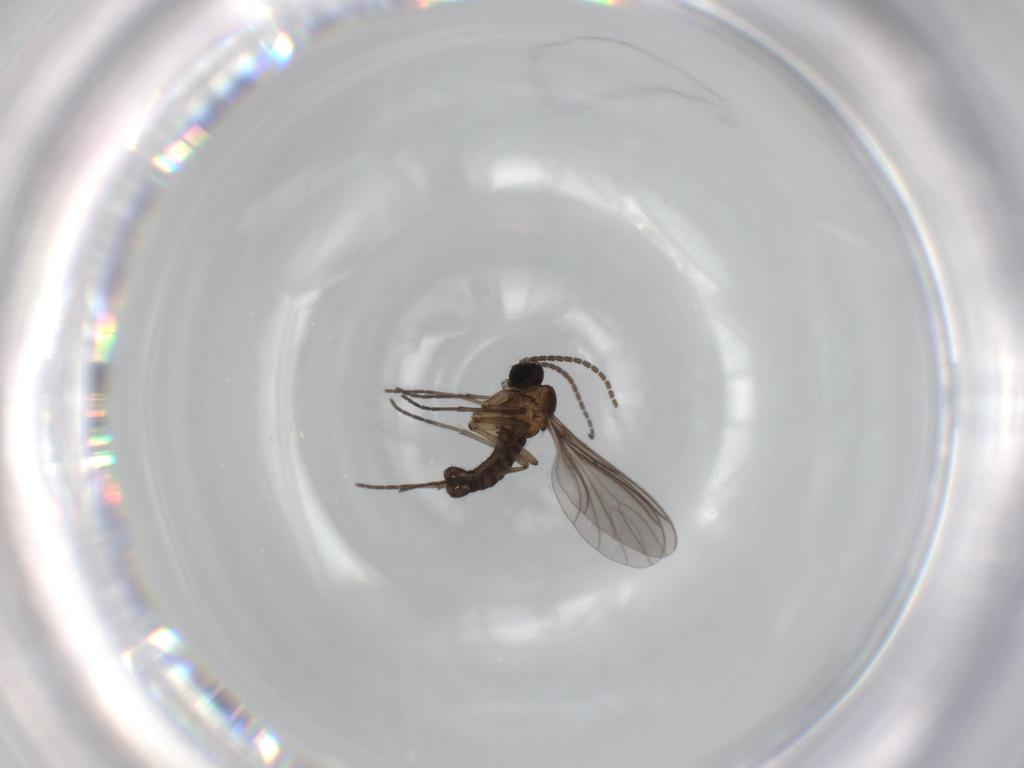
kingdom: Animalia
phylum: Arthropoda
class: Insecta
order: Diptera
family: Sciaridae
